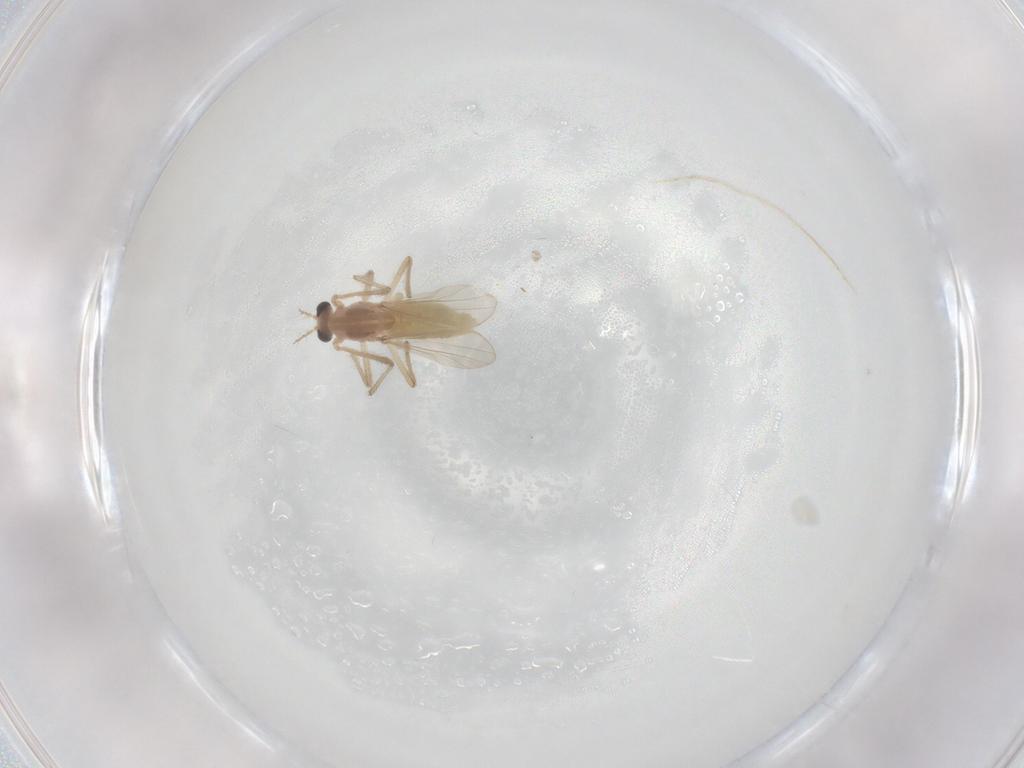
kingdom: Animalia
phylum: Arthropoda
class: Insecta
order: Diptera
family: Chironomidae
